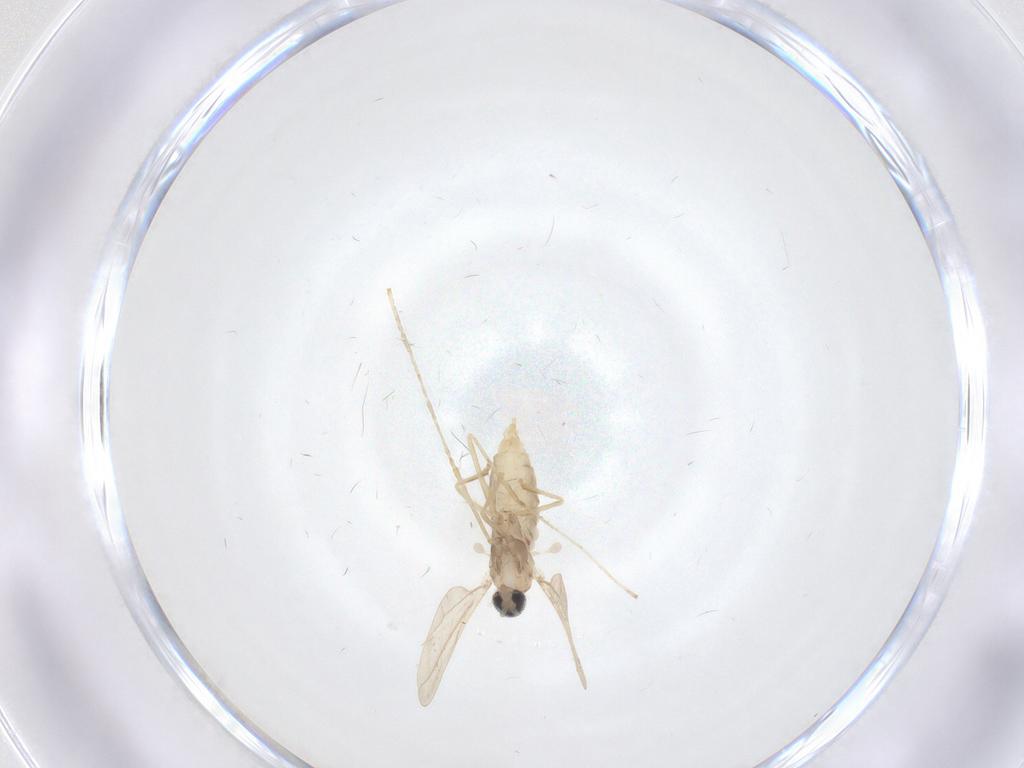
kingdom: Animalia
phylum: Arthropoda
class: Insecta
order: Diptera
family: Cecidomyiidae
